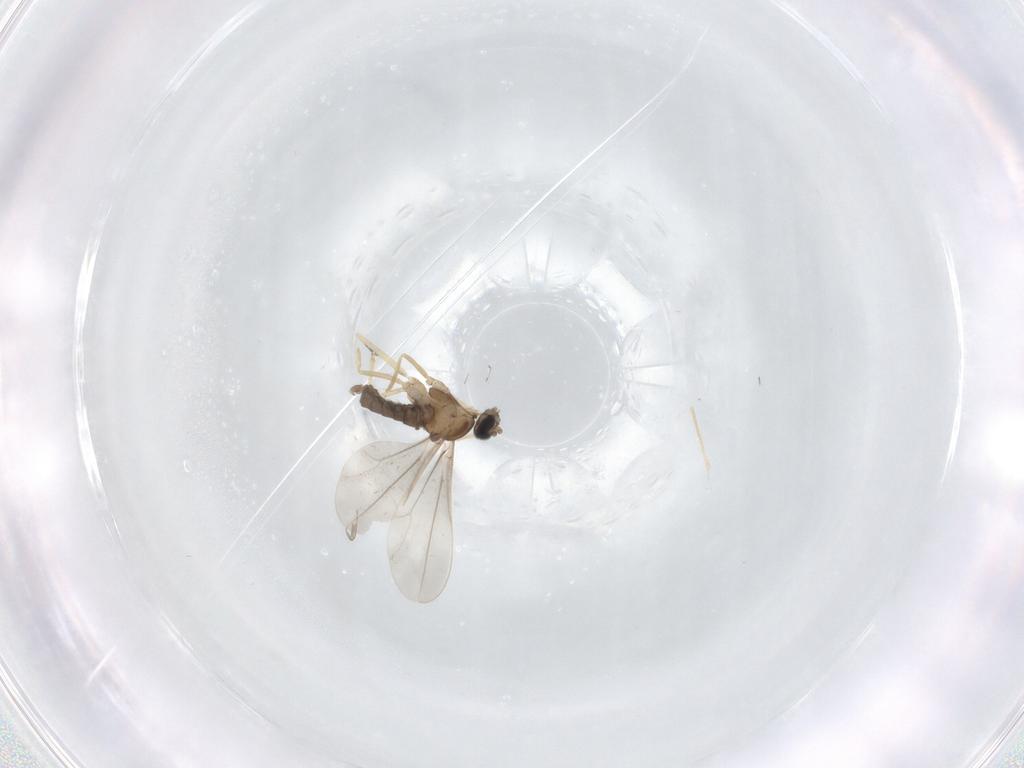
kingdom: Animalia
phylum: Arthropoda
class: Insecta
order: Diptera
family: Cecidomyiidae
